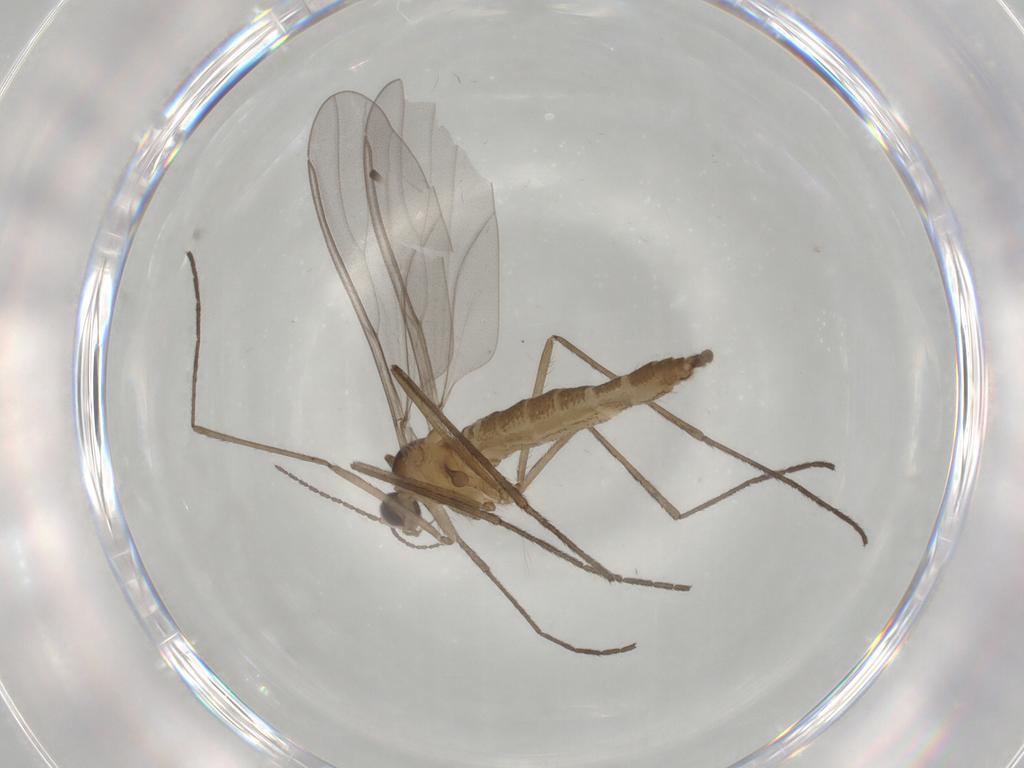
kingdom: Animalia
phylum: Arthropoda
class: Insecta
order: Diptera
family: Cecidomyiidae
